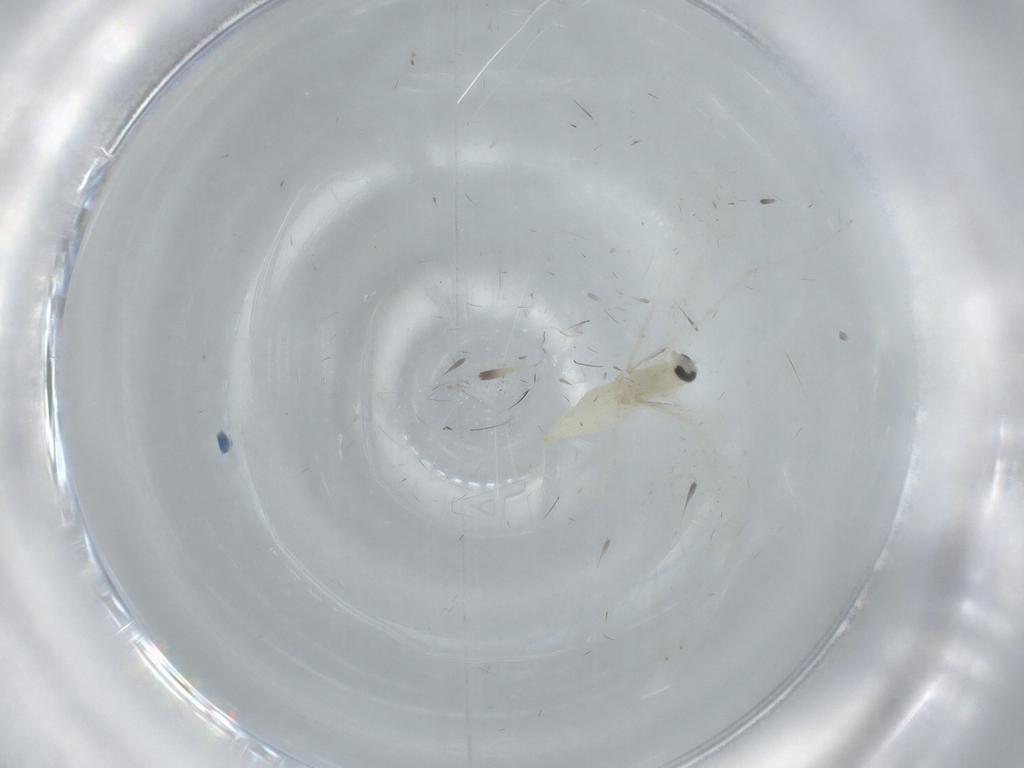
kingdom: Animalia
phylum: Arthropoda
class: Insecta
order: Diptera
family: Cecidomyiidae
